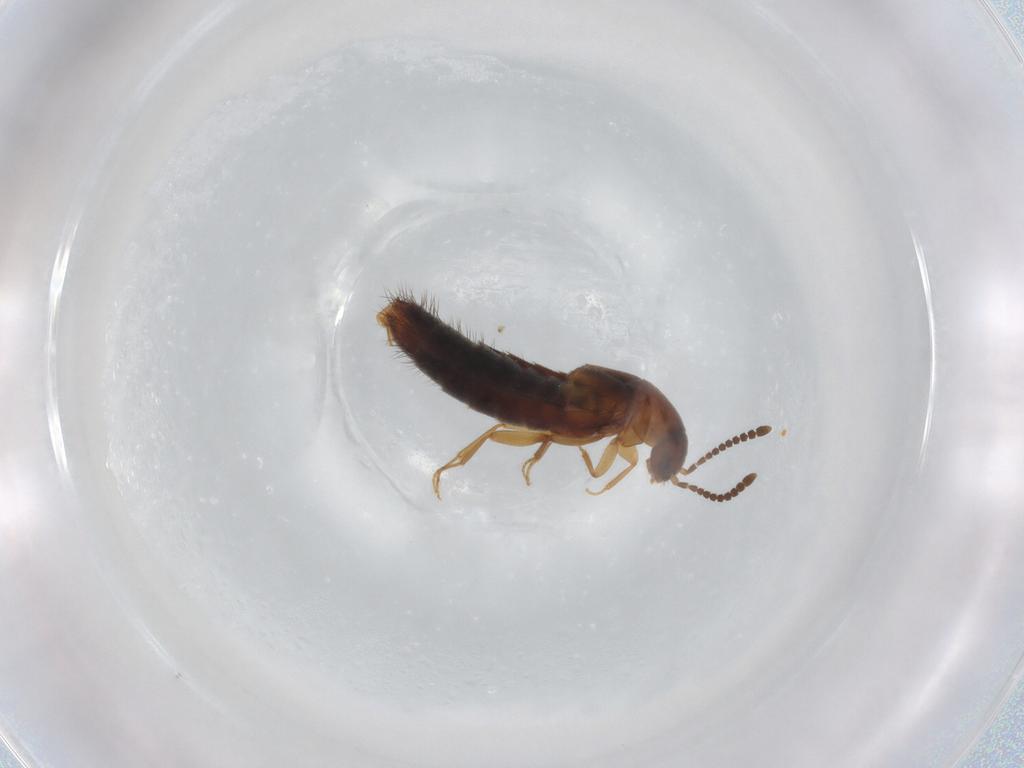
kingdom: Animalia
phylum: Arthropoda
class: Insecta
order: Coleoptera
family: Staphylinidae
